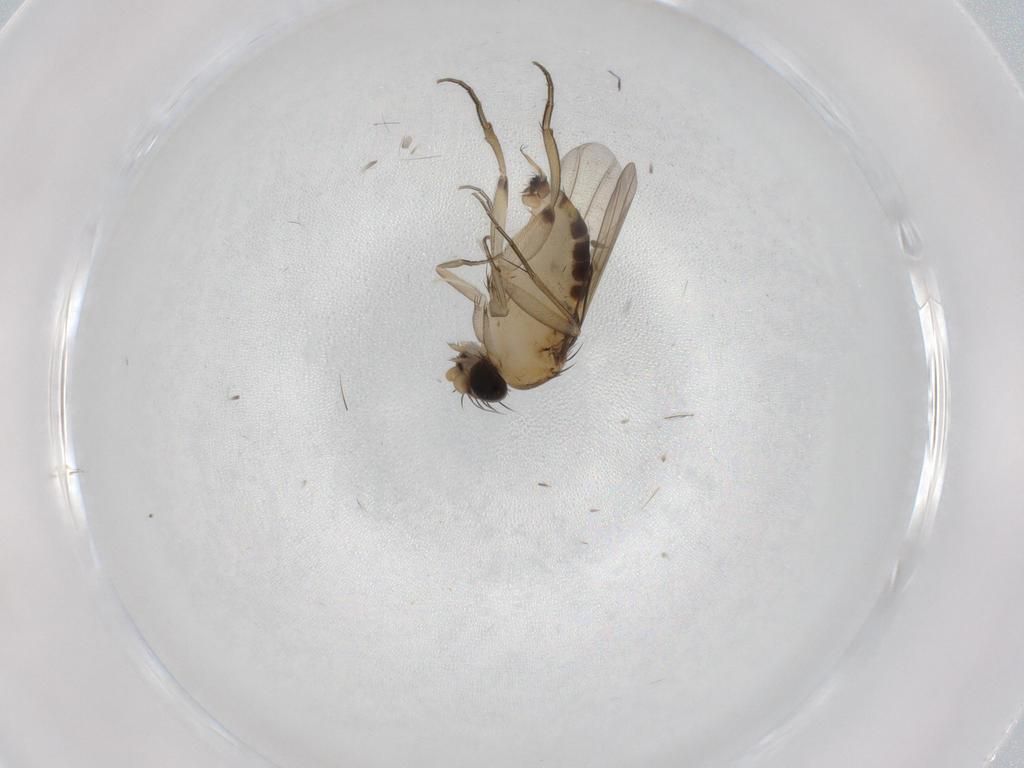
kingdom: Animalia
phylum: Arthropoda
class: Insecta
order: Diptera
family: Phoridae
